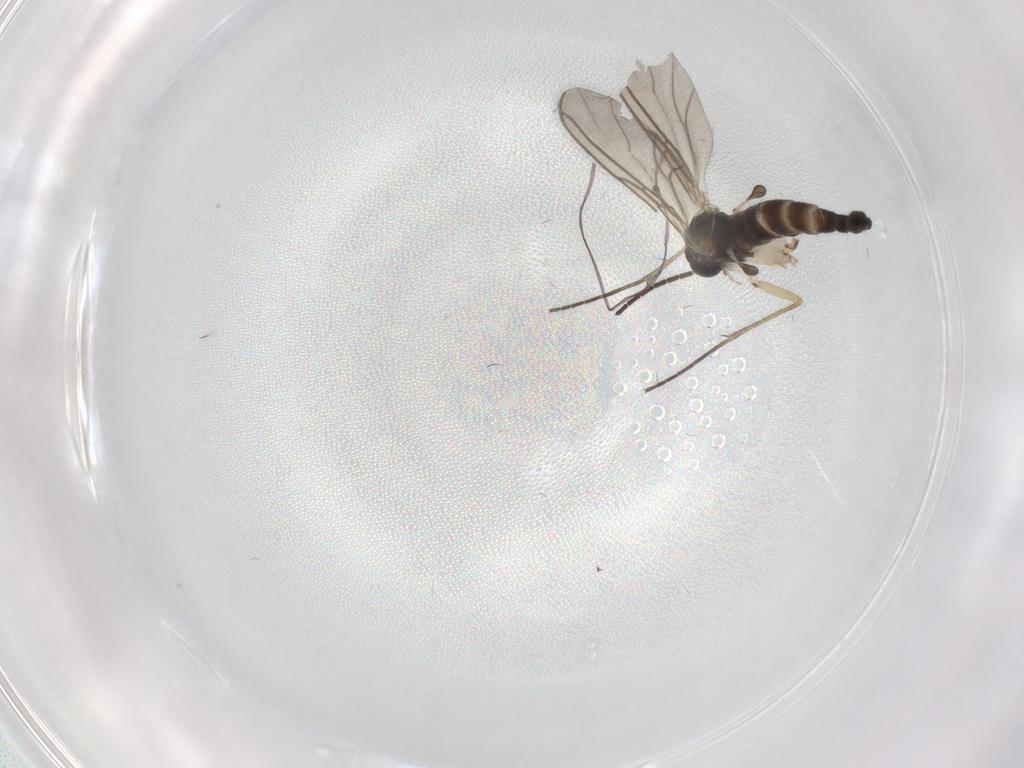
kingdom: Animalia
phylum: Arthropoda
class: Insecta
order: Diptera
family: Sciaridae
